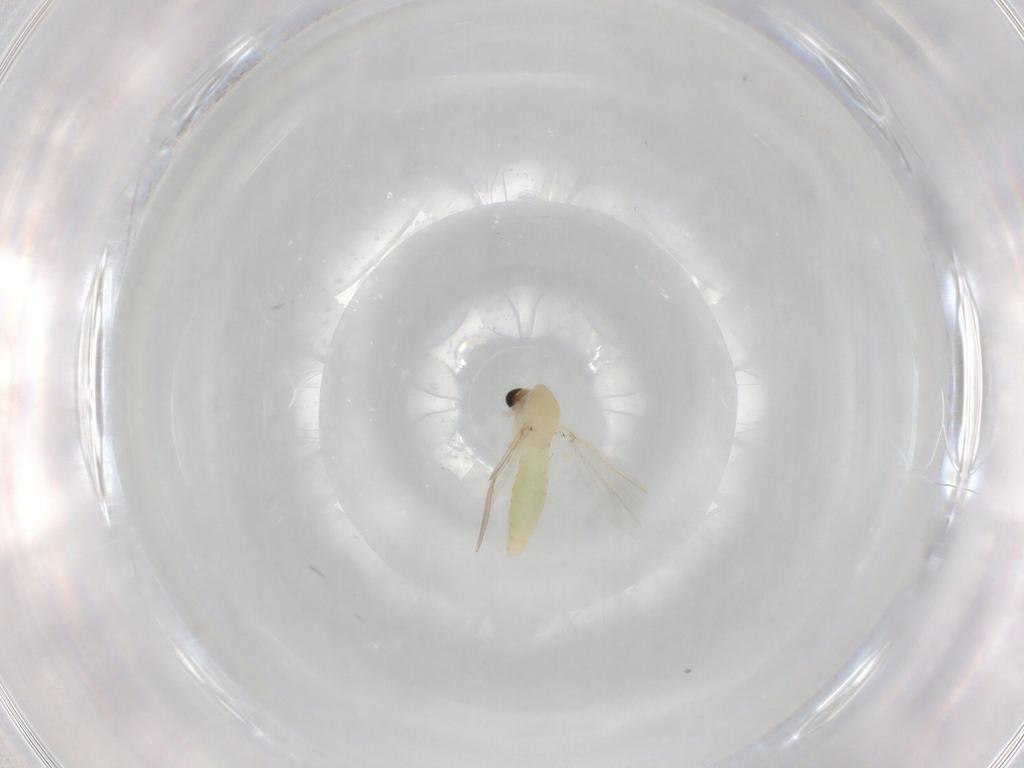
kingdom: Animalia
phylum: Arthropoda
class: Insecta
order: Diptera
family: Chironomidae
